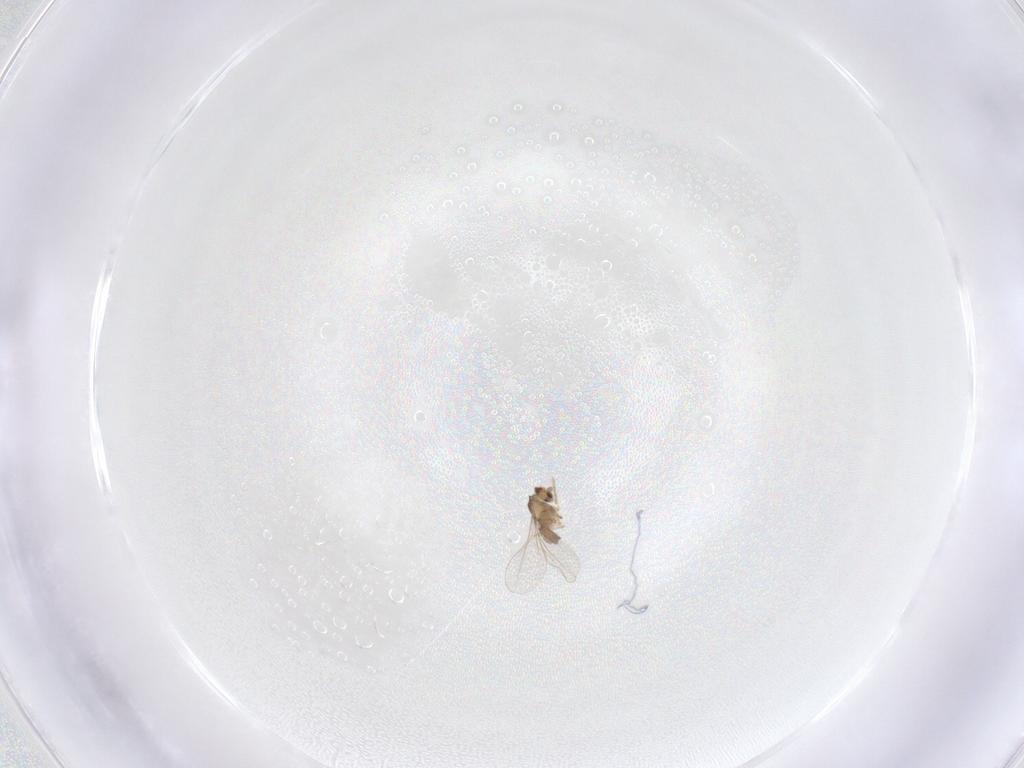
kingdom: Animalia
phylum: Arthropoda
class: Insecta
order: Diptera
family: Cecidomyiidae
